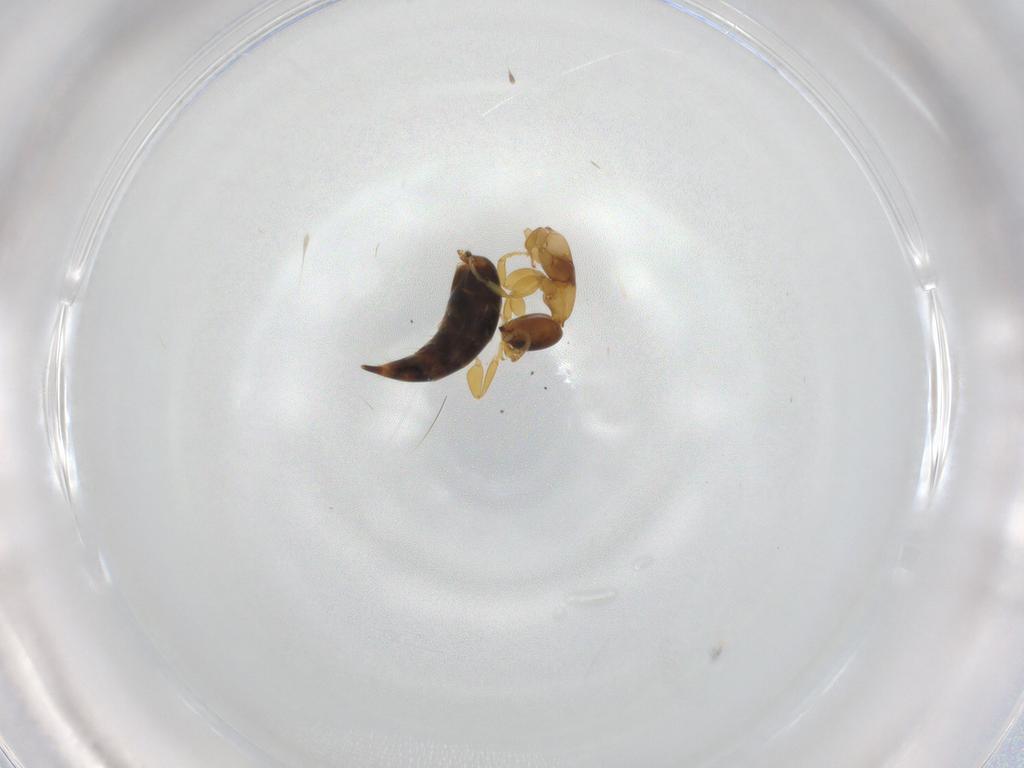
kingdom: Animalia
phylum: Arthropoda
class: Insecta
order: Hymenoptera
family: Bethylidae
